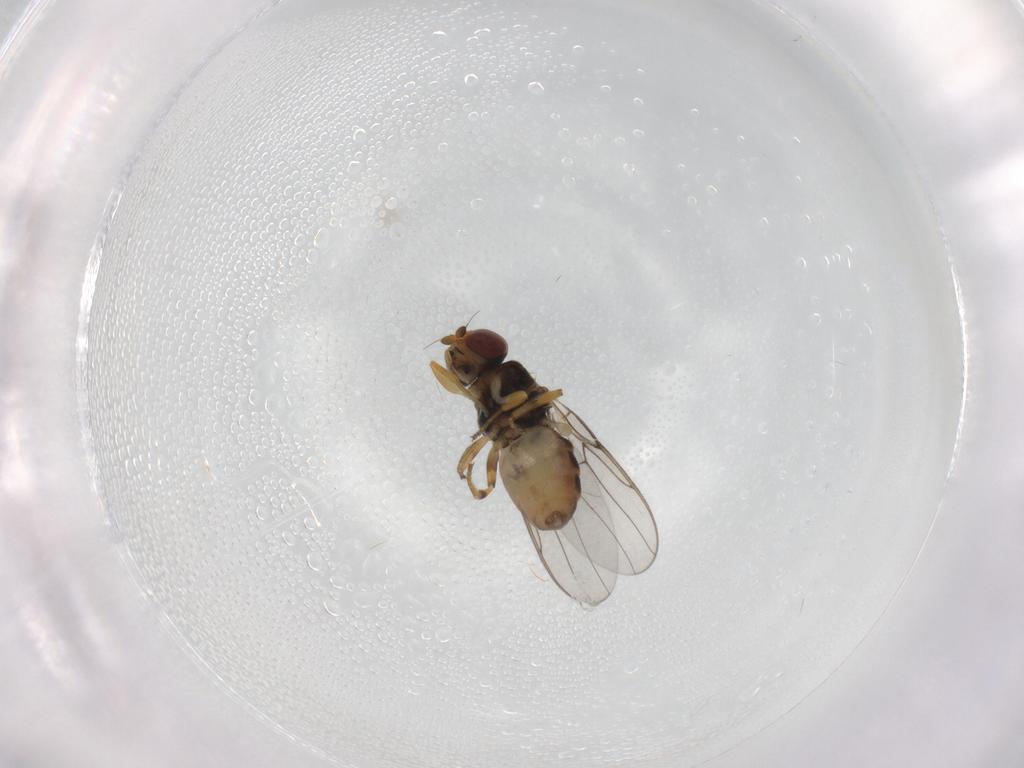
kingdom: Animalia
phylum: Arthropoda
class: Insecta
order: Diptera
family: Chloropidae
